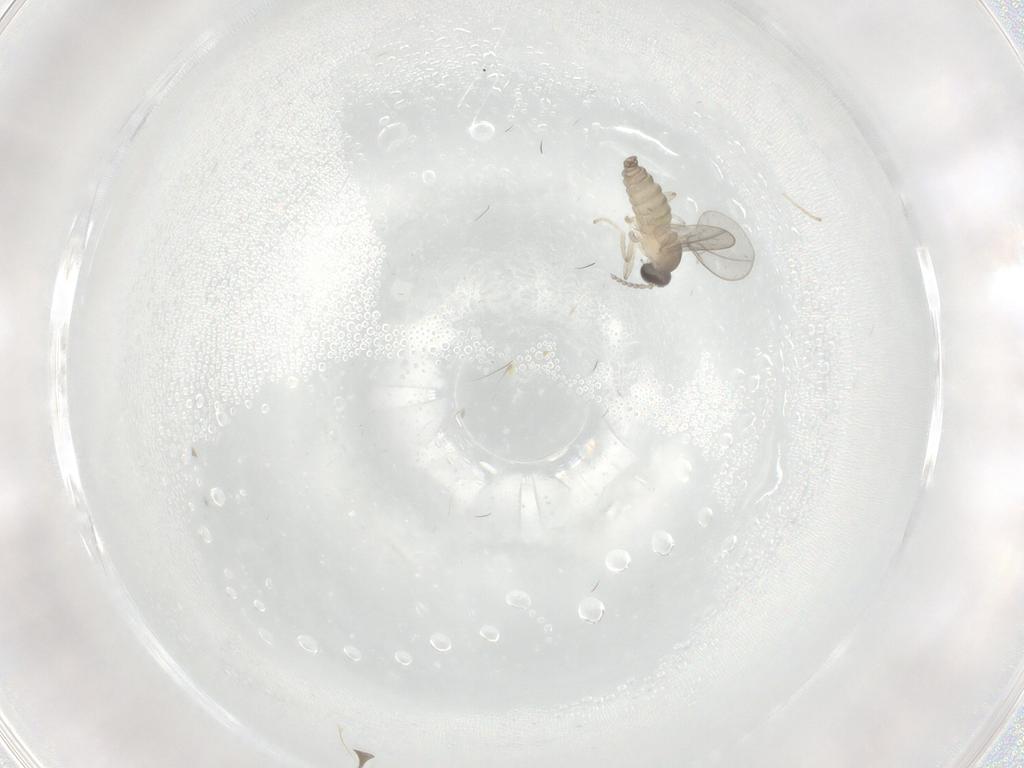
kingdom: Animalia
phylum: Arthropoda
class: Insecta
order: Diptera
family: Cecidomyiidae
